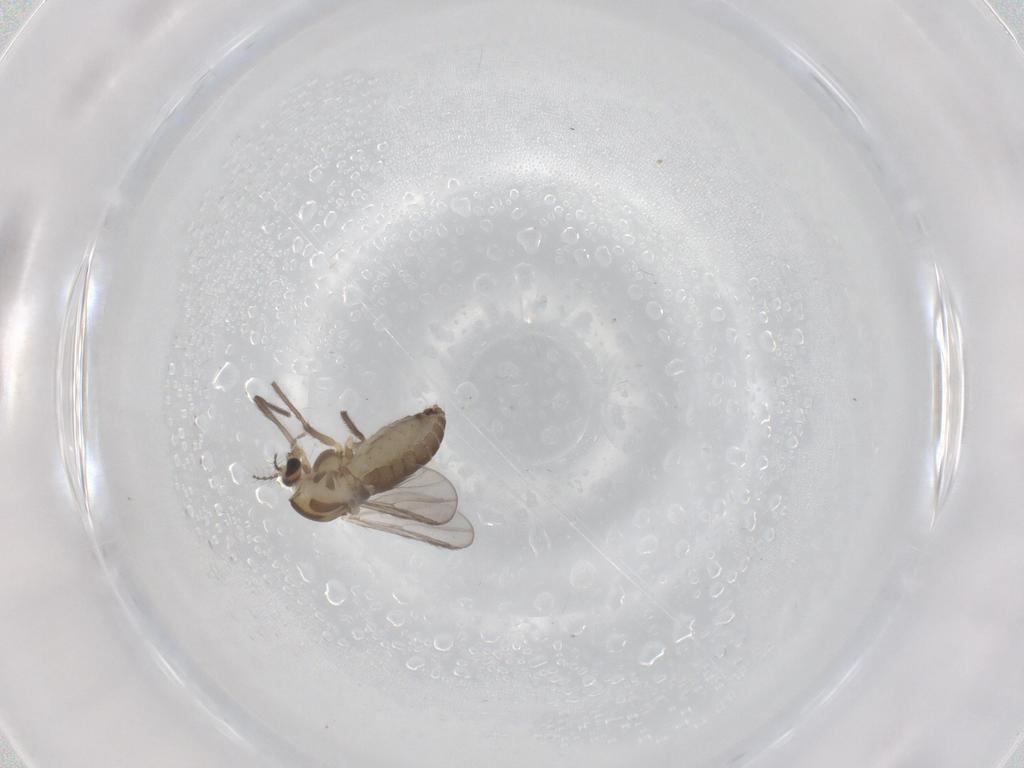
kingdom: Animalia
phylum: Arthropoda
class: Insecta
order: Diptera
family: Chironomidae
